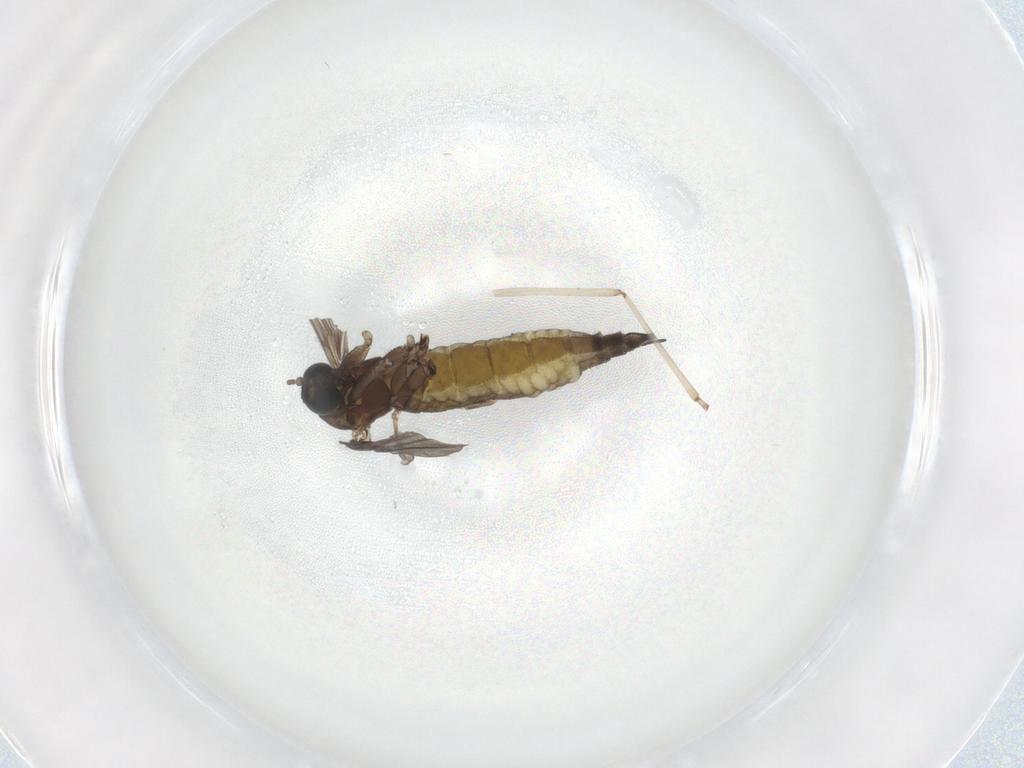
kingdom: Animalia
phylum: Arthropoda
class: Insecta
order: Diptera
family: Sciaridae
